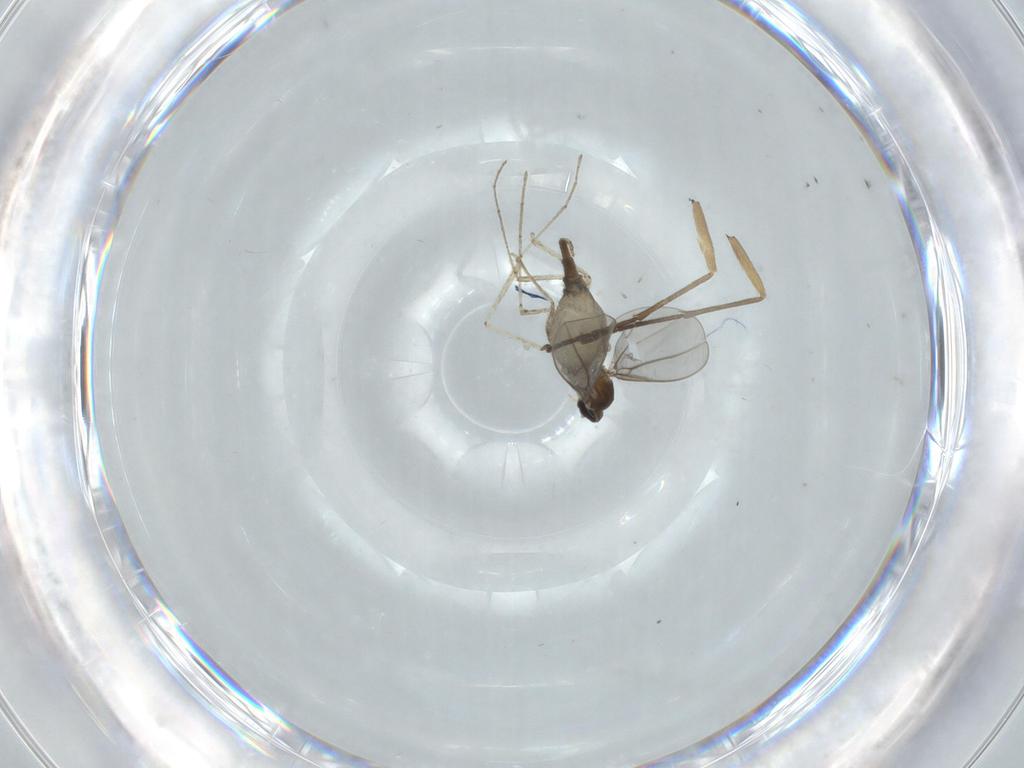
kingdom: Animalia
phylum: Arthropoda
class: Insecta
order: Diptera
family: Cecidomyiidae
